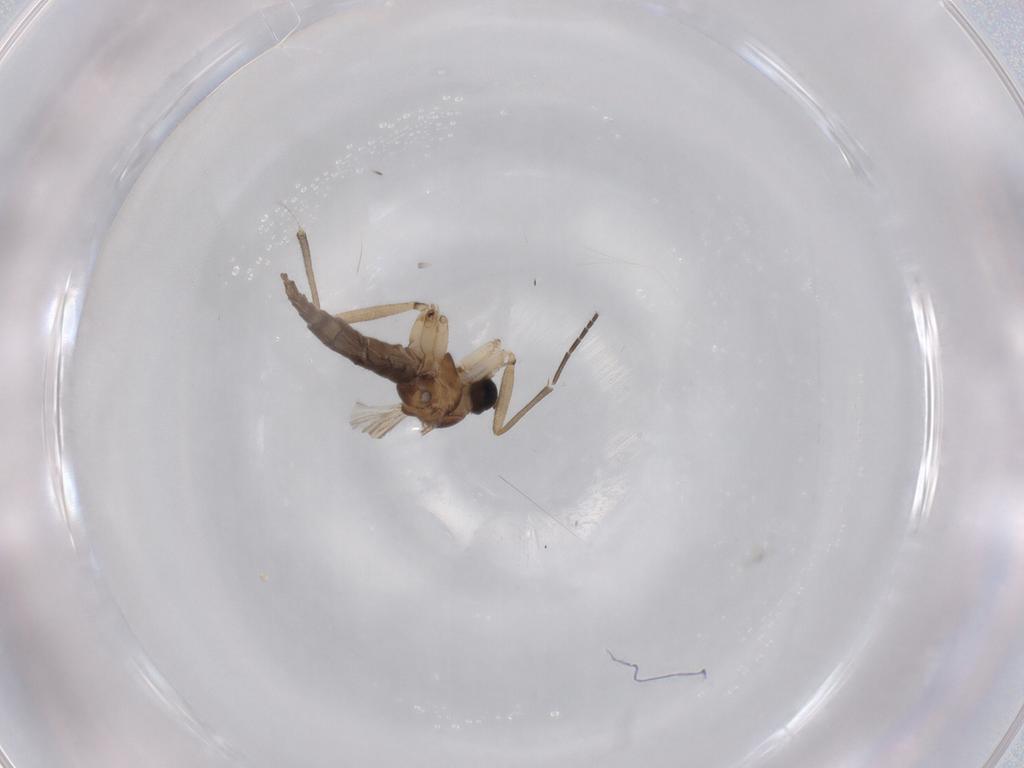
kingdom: Animalia
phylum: Arthropoda
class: Insecta
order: Diptera
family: Sciaridae
